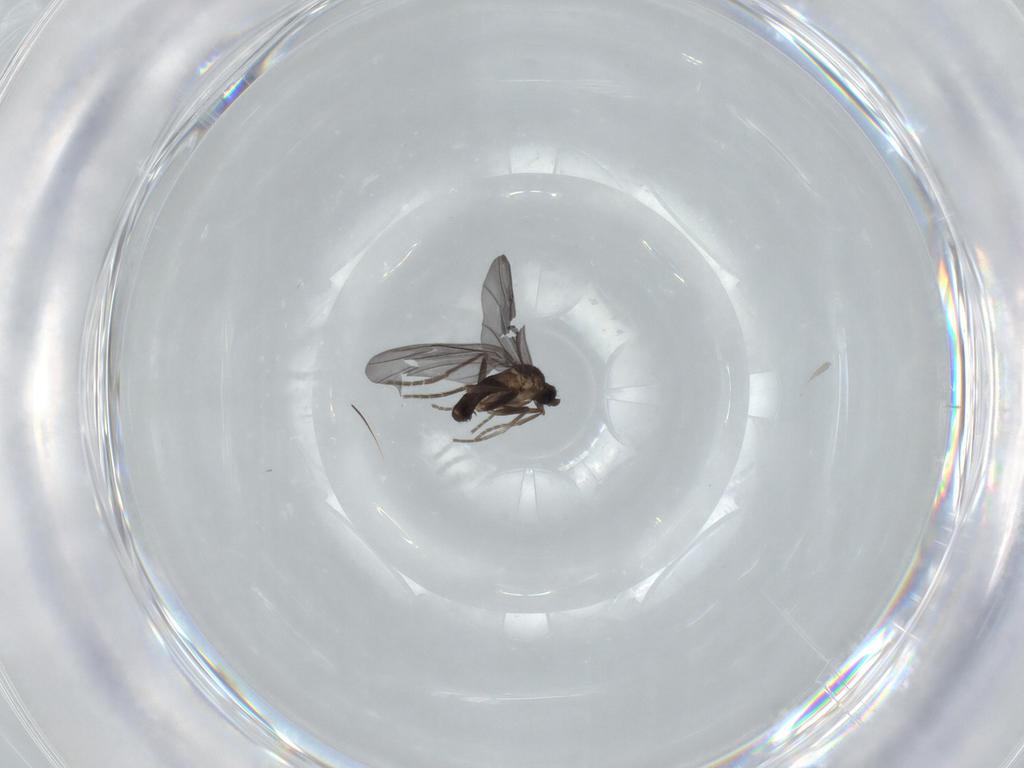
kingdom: Animalia
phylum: Arthropoda
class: Insecta
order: Diptera
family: Phoridae
